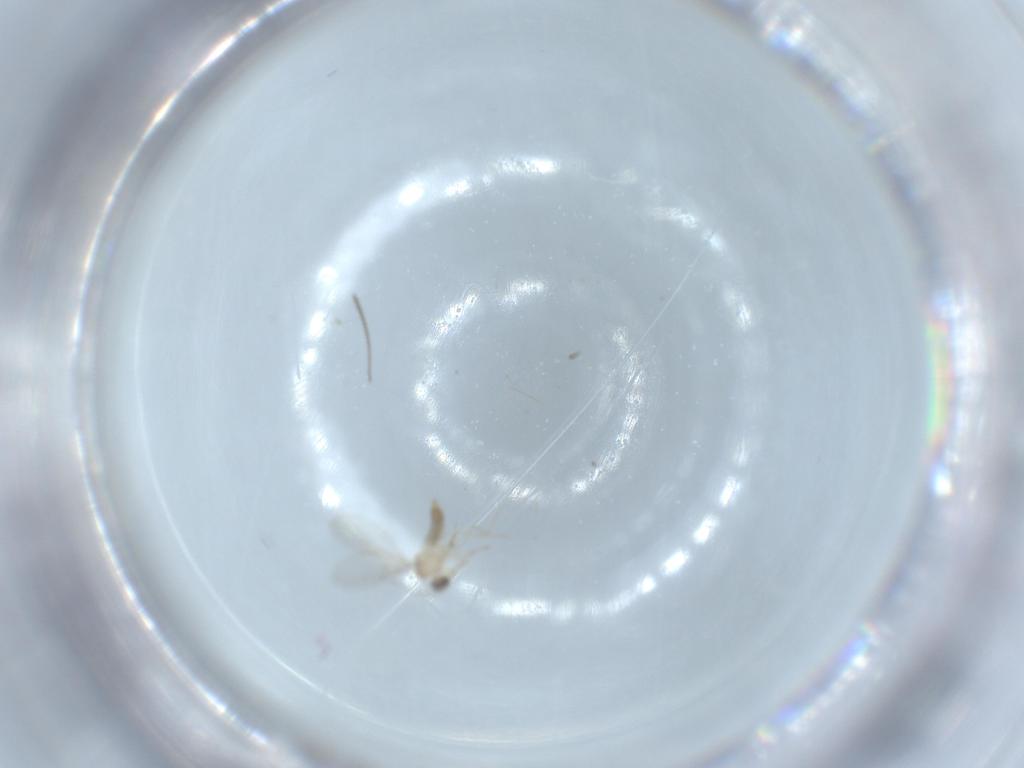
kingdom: Animalia
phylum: Arthropoda
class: Insecta
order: Diptera
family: Cecidomyiidae
